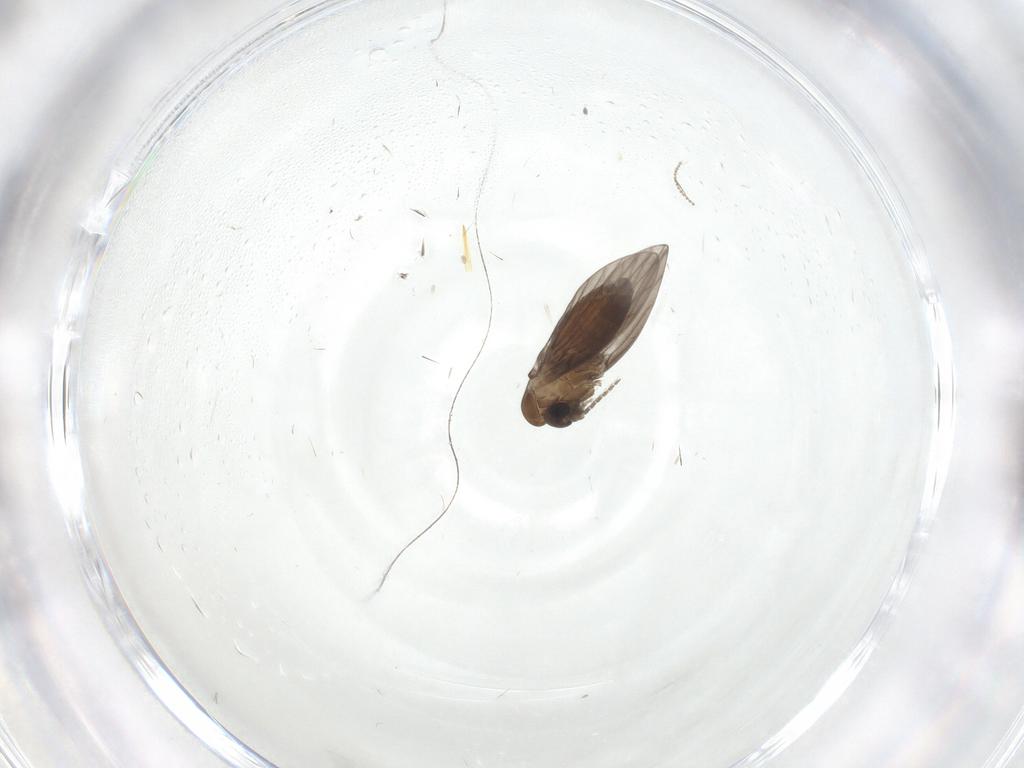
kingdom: Animalia
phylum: Arthropoda
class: Insecta
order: Diptera
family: Psychodidae
